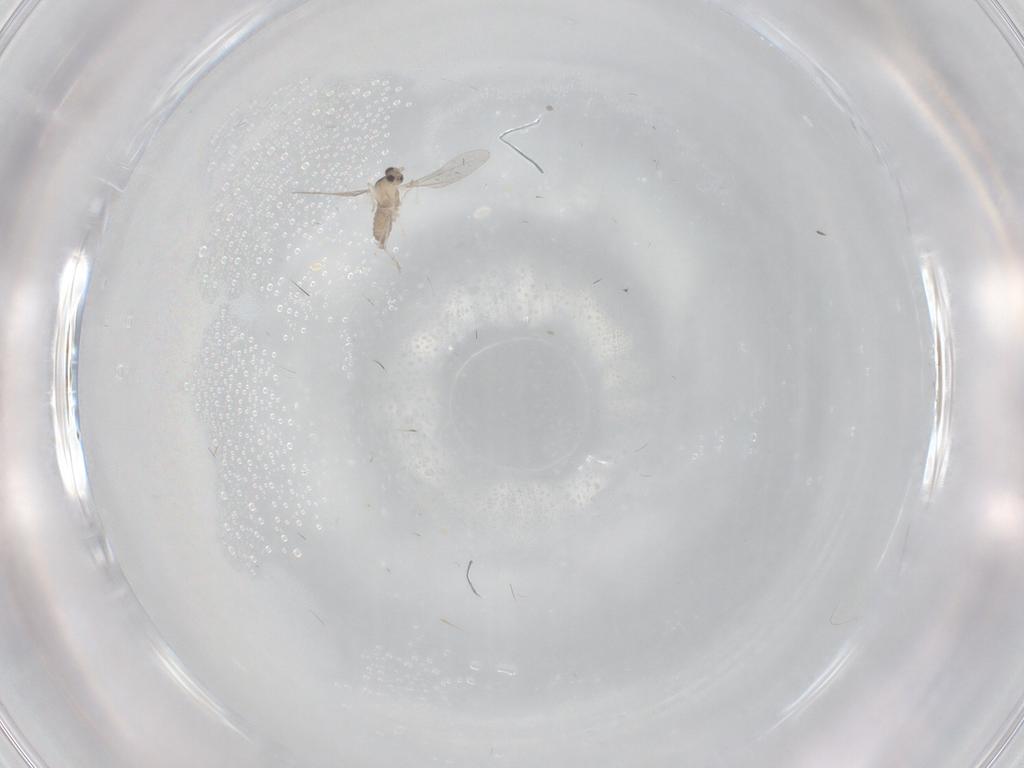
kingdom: Animalia
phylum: Arthropoda
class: Insecta
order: Diptera
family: Cecidomyiidae
